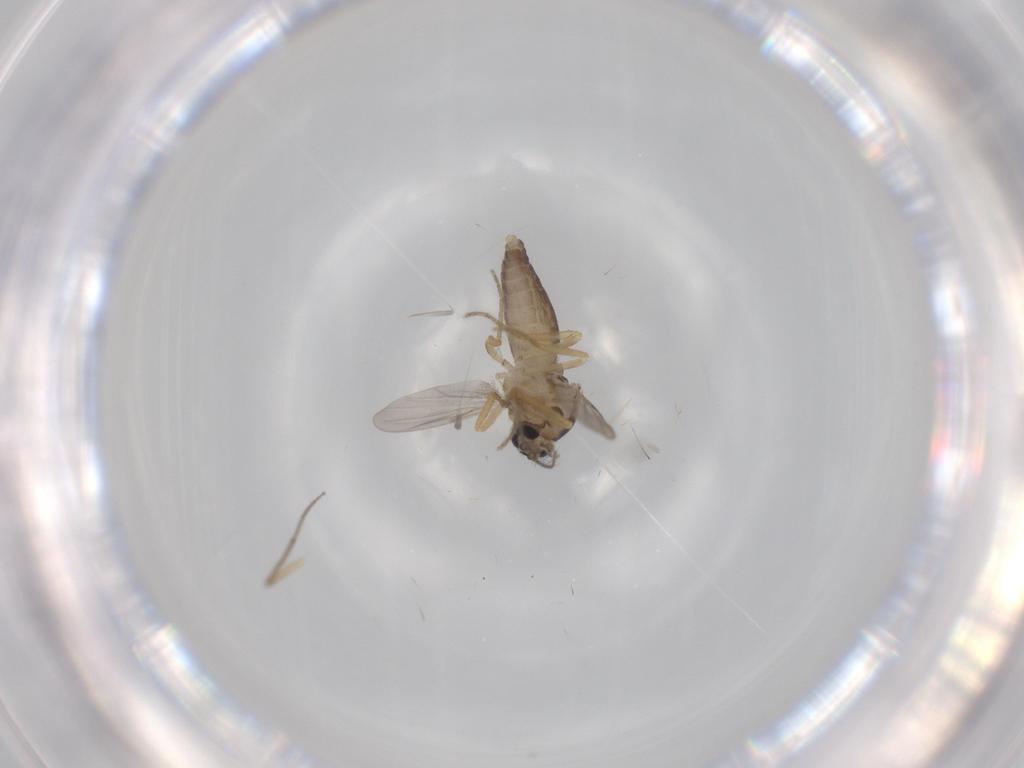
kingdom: Animalia
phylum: Arthropoda
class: Insecta
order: Diptera
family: Ceratopogonidae
